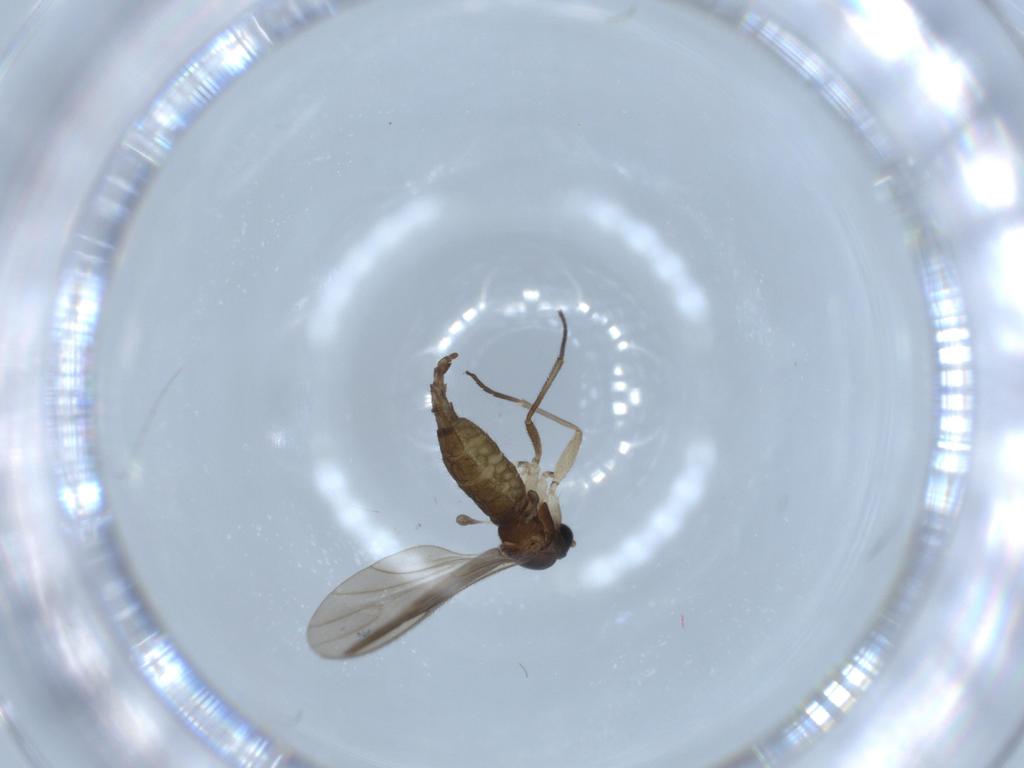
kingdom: Animalia
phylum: Arthropoda
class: Insecta
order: Diptera
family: Sciaridae
